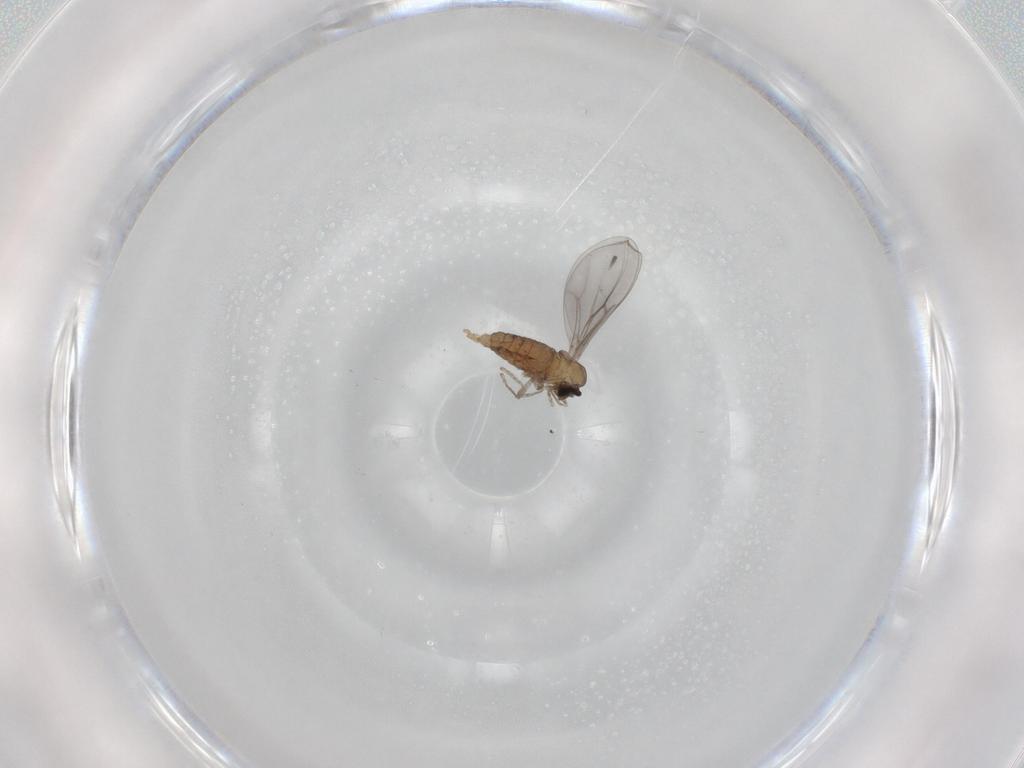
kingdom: Animalia
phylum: Arthropoda
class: Insecta
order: Diptera
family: Cecidomyiidae
